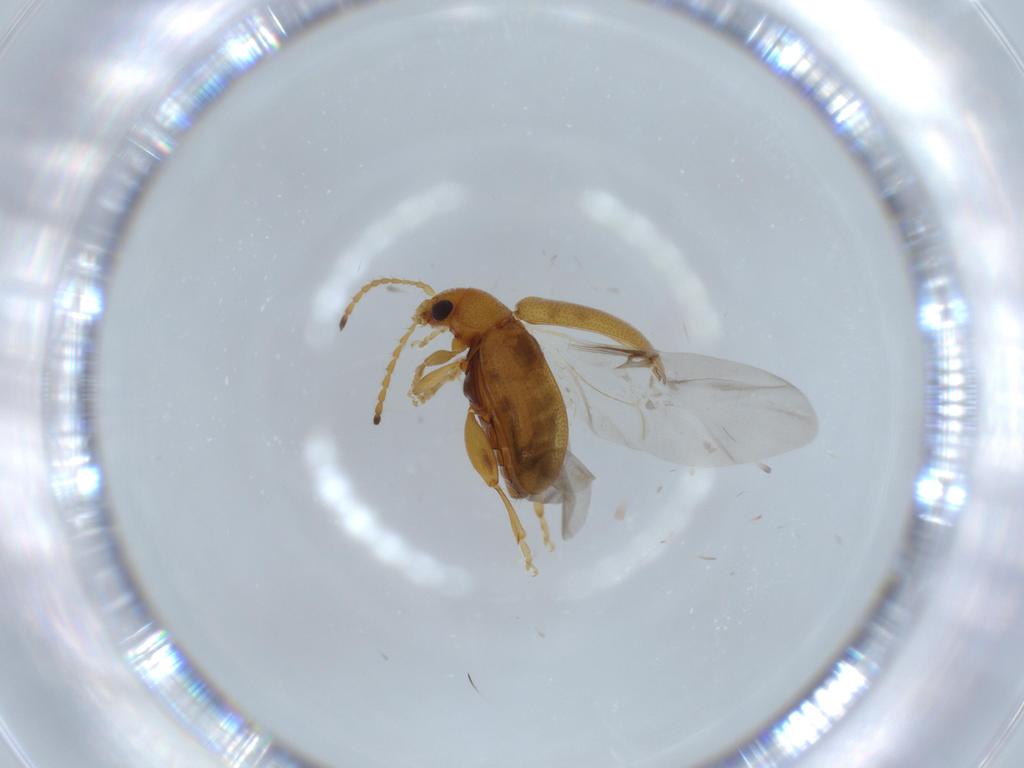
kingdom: Animalia
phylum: Arthropoda
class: Insecta
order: Coleoptera
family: Chrysomelidae
